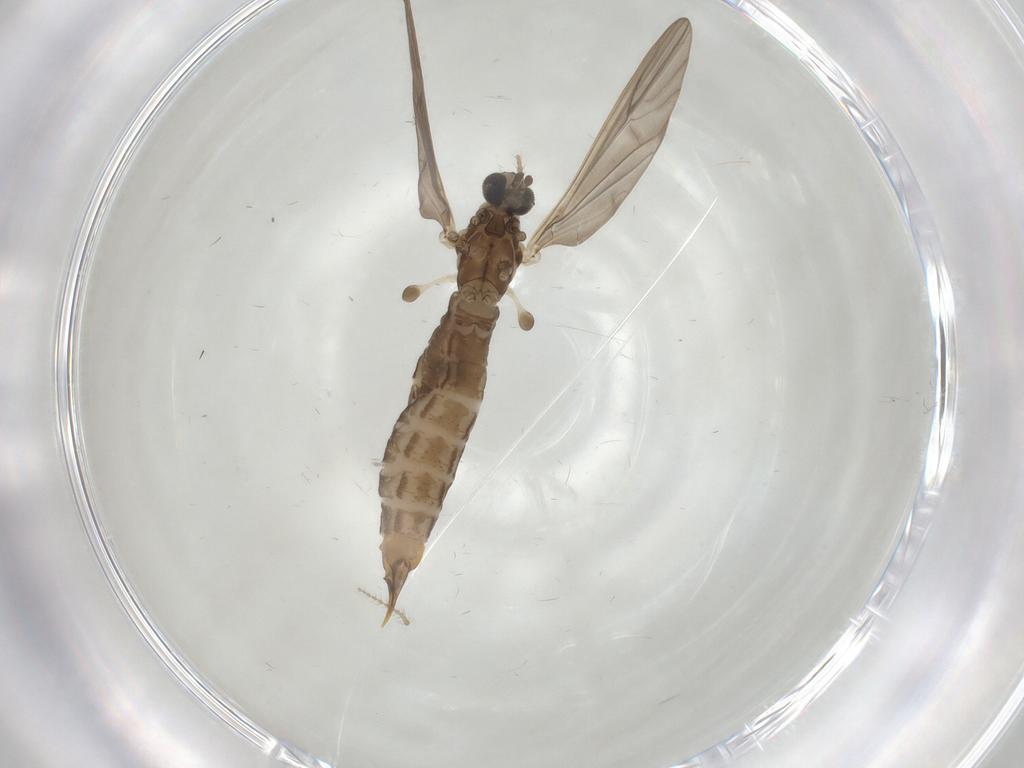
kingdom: Animalia
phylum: Arthropoda
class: Insecta
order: Diptera
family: Limoniidae
